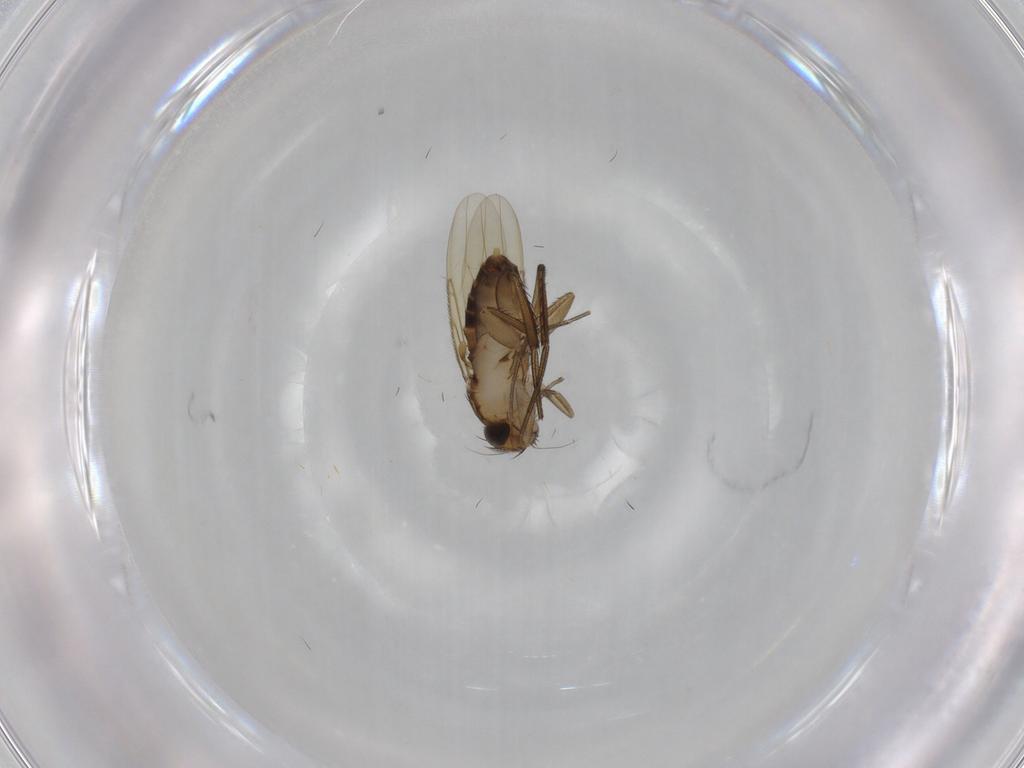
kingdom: Animalia
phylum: Arthropoda
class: Insecta
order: Diptera
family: Phoridae
